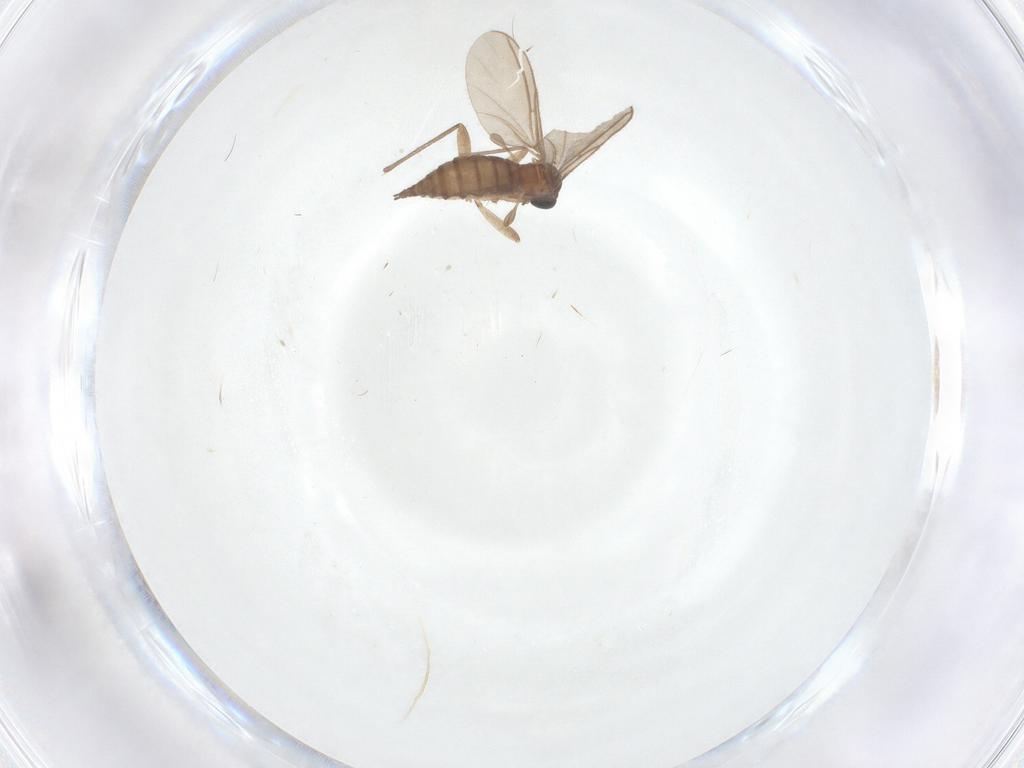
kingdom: Animalia
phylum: Arthropoda
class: Insecta
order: Diptera
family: Sciaridae
